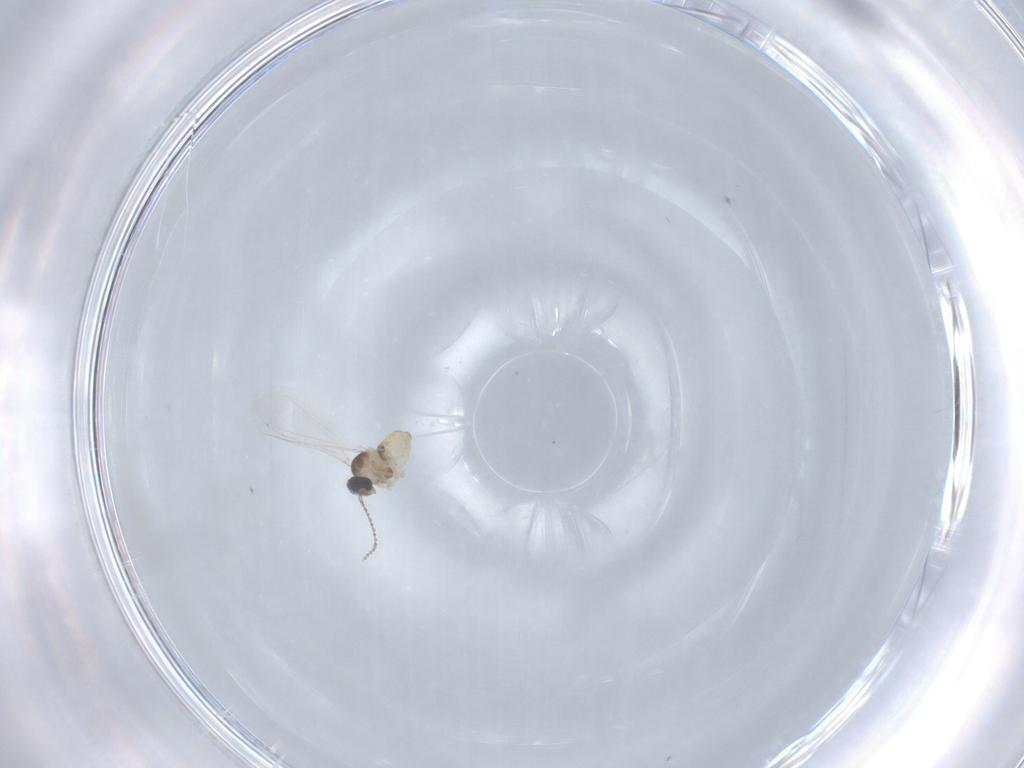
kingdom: Animalia
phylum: Arthropoda
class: Insecta
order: Diptera
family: Cecidomyiidae
